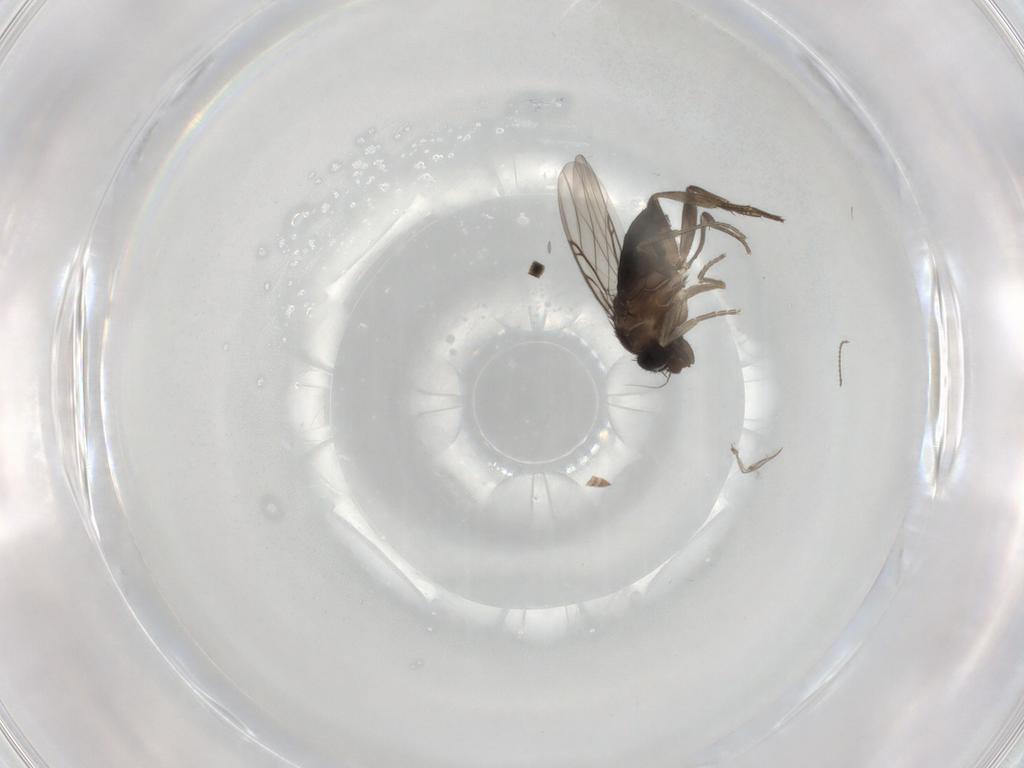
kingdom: Animalia
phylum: Arthropoda
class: Insecta
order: Diptera
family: Phoridae
